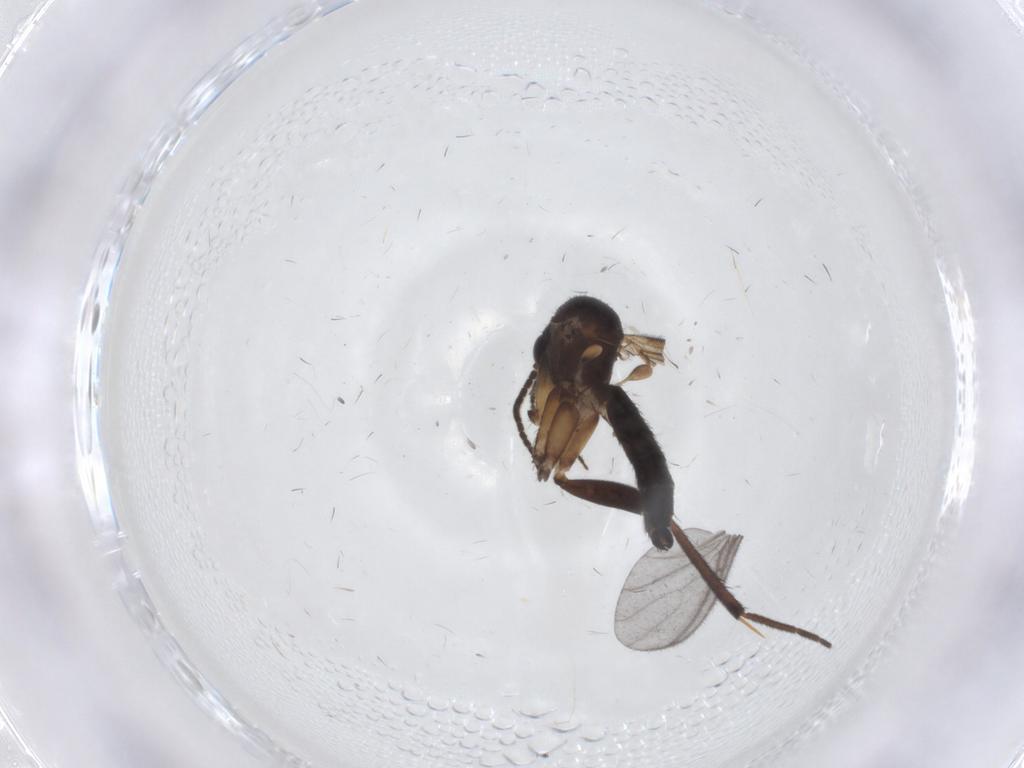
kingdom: Animalia
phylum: Arthropoda
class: Insecta
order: Diptera
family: Mycetophilidae
